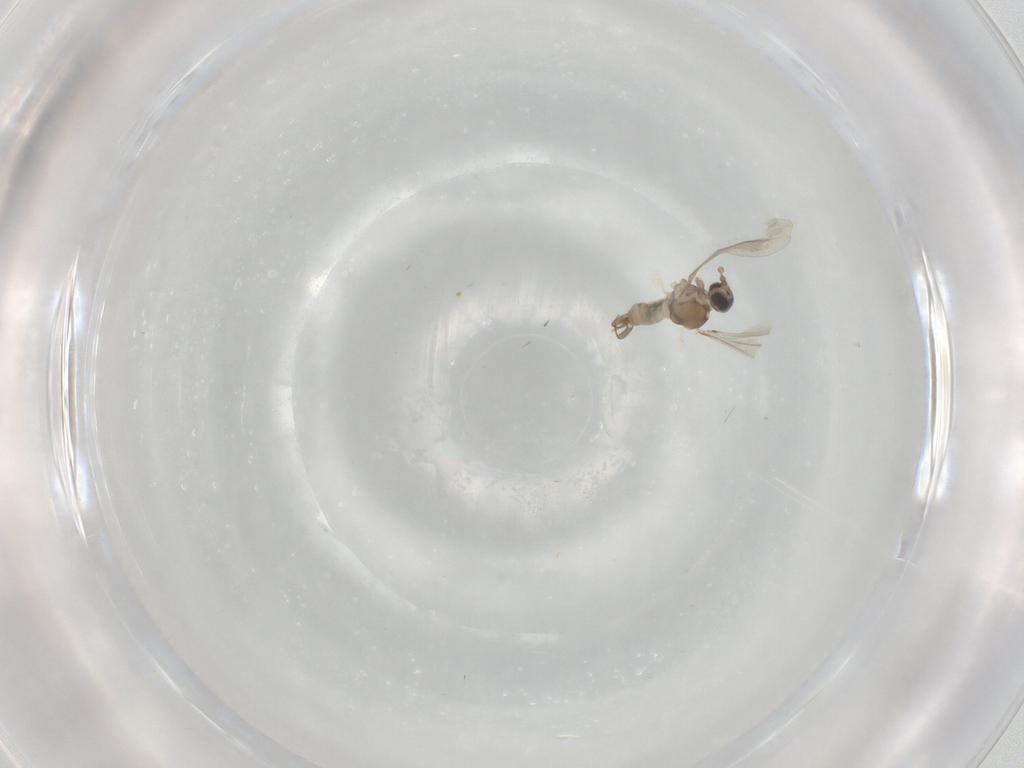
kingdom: Animalia
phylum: Arthropoda
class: Insecta
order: Diptera
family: Cecidomyiidae
